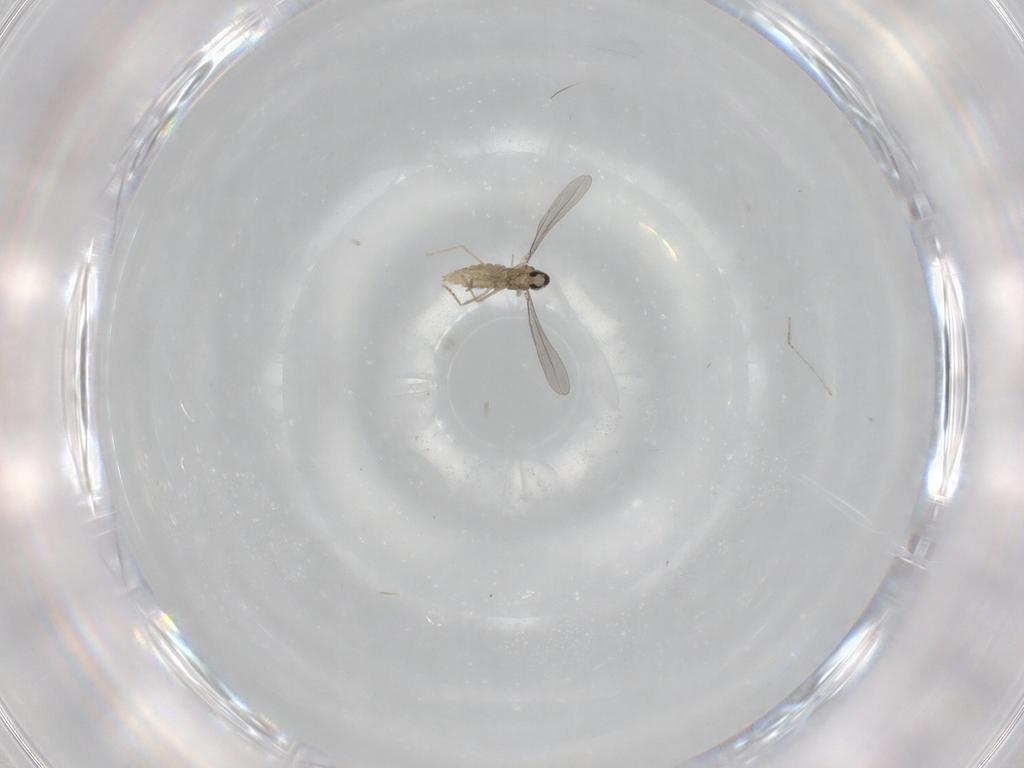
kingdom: Animalia
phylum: Arthropoda
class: Insecta
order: Diptera
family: Cecidomyiidae
